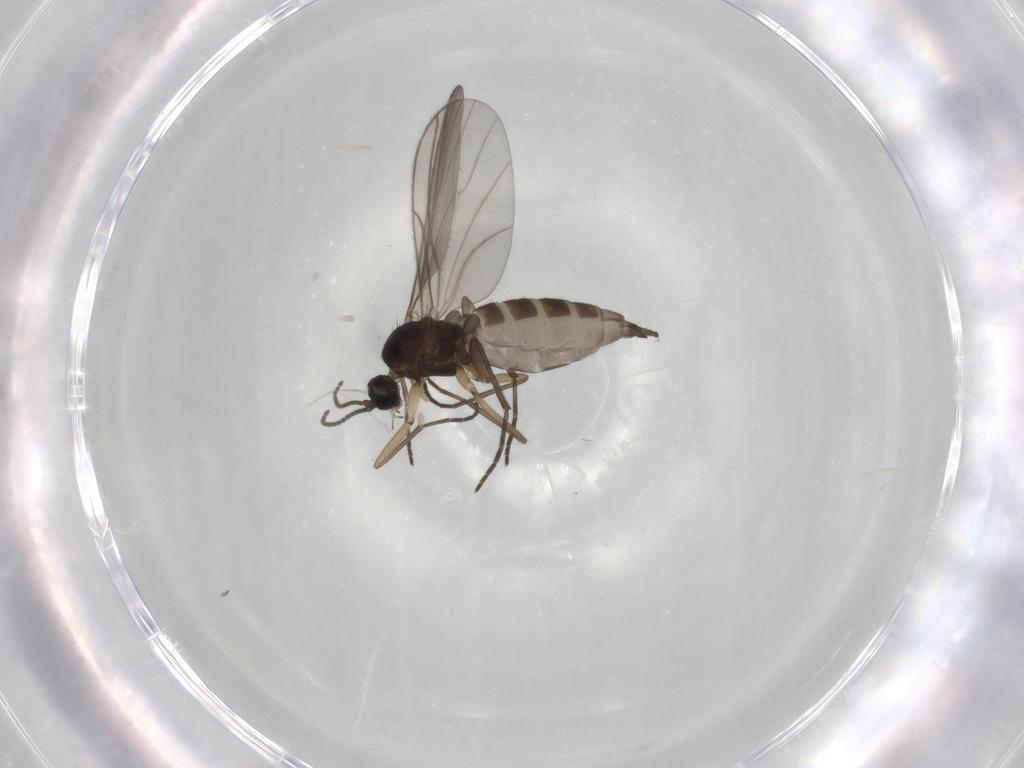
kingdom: Animalia
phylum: Arthropoda
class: Insecta
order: Diptera
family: Sciaridae
